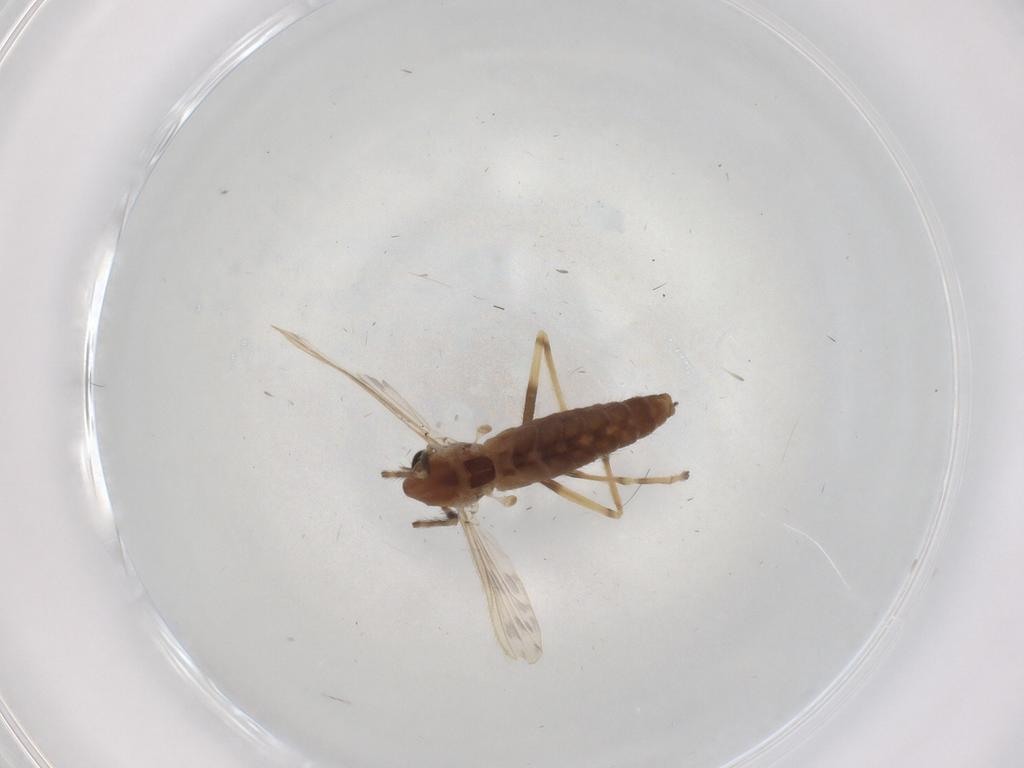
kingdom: Animalia
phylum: Arthropoda
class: Insecta
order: Diptera
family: Chironomidae
